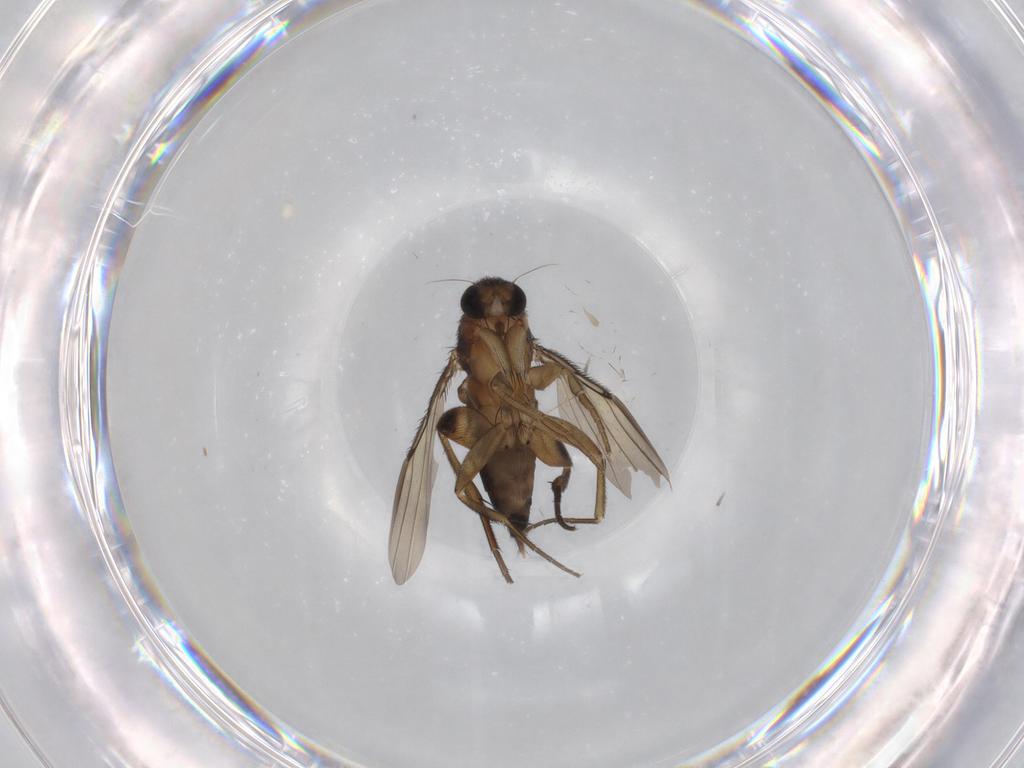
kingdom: Animalia
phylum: Arthropoda
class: Insecta
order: Diptera
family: Phoridae
